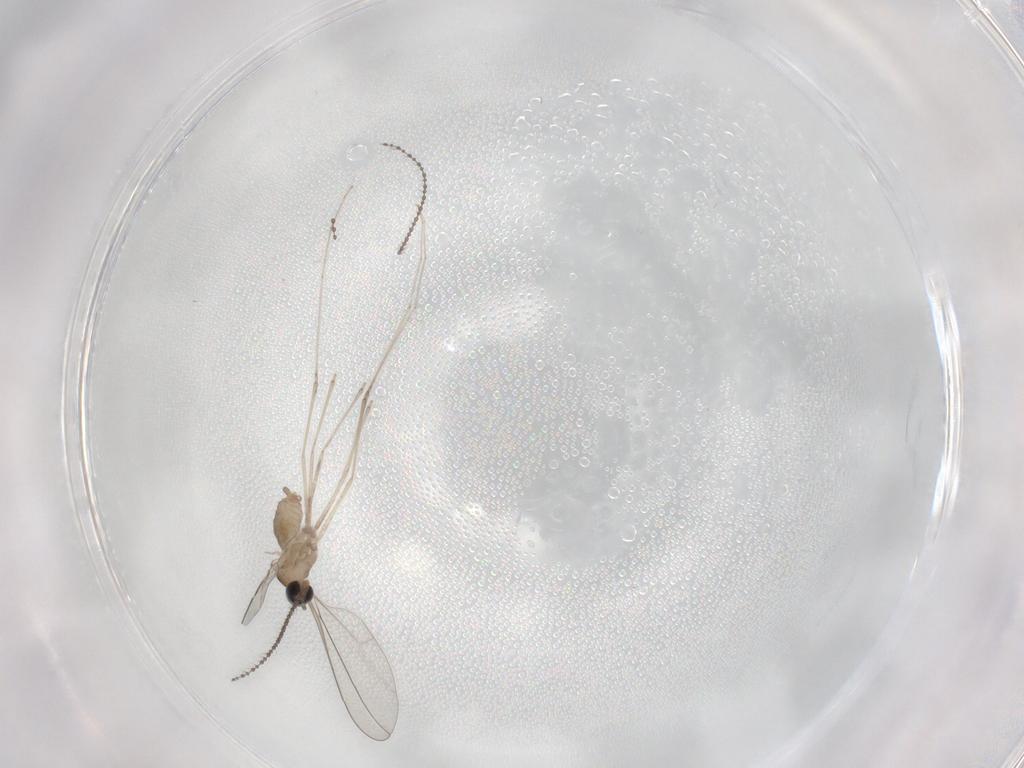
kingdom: Animalia
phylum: Arthropoda
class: Insecta
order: Diptera
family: Cecidomyiidae
